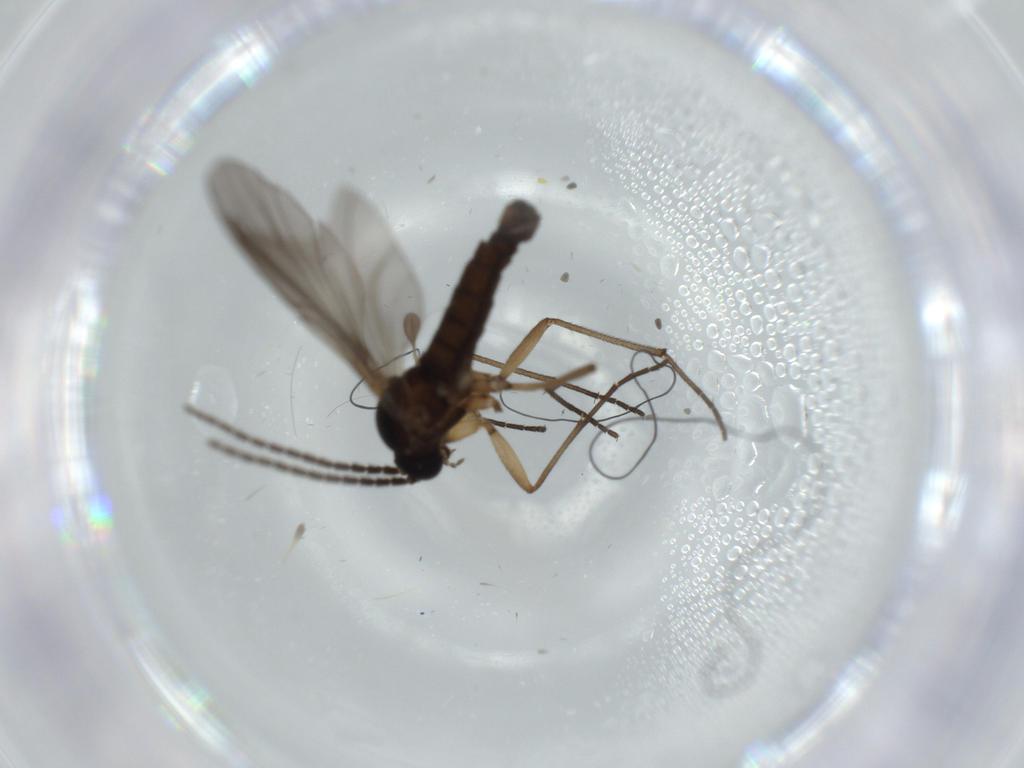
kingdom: Animalia
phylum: Arthropoda
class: Insecta
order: Diptera
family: Sciaridae
